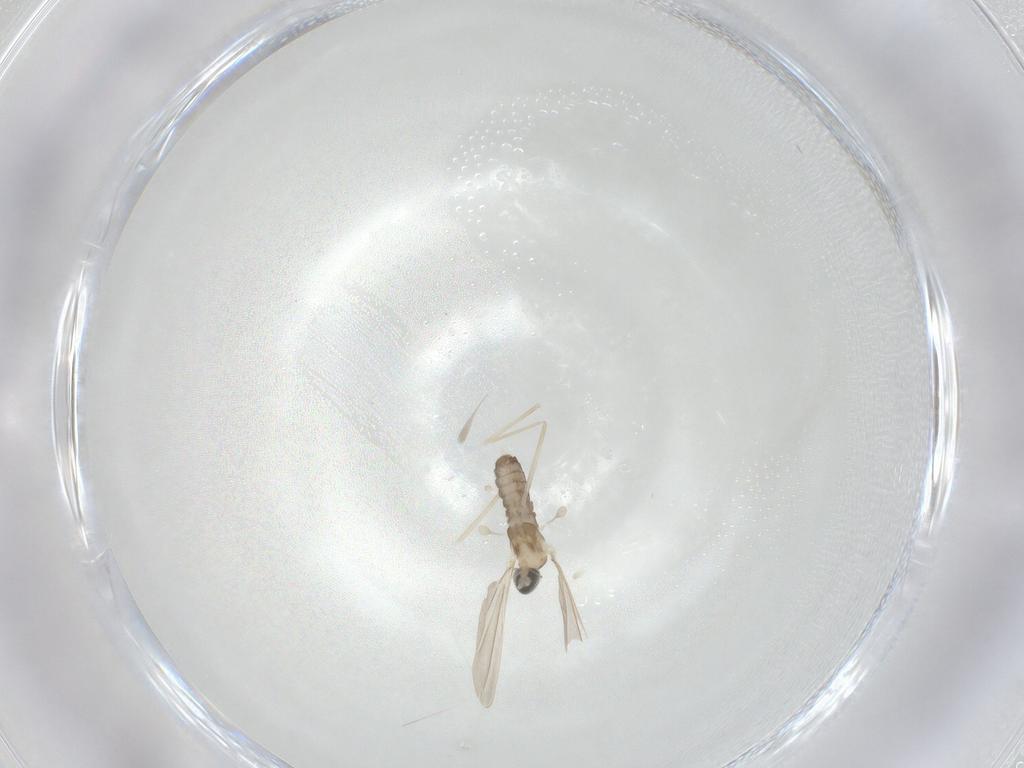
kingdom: Animalia
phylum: Arthropoda
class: Insecta
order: Diptera
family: Cecidomyiidae
